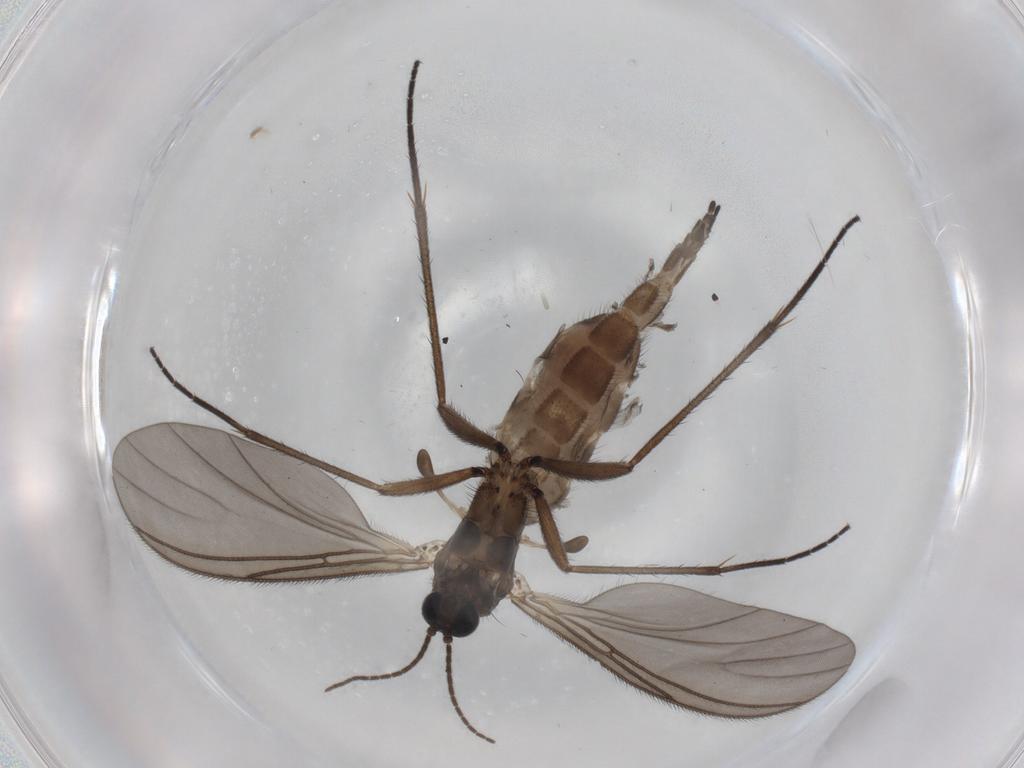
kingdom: Animalia
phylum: Arthropoda
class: Insecta
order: Diptera
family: Sciaridae
